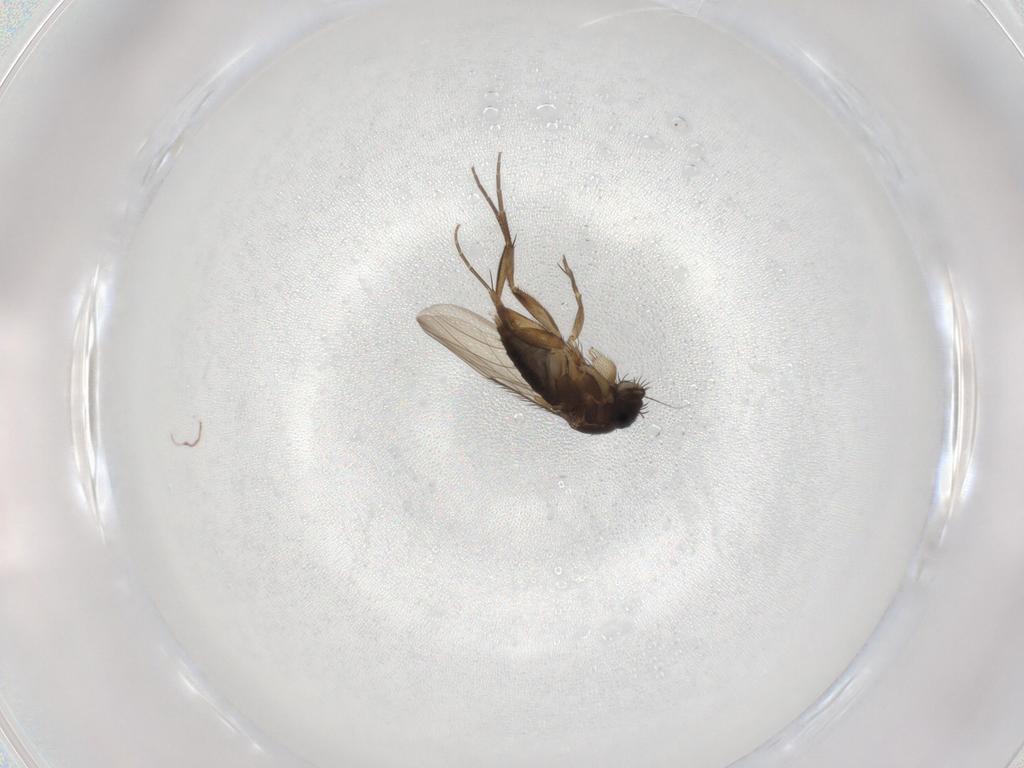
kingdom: Animalia
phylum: Arthropoda
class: Insecta
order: Diptera
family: Phoridae
